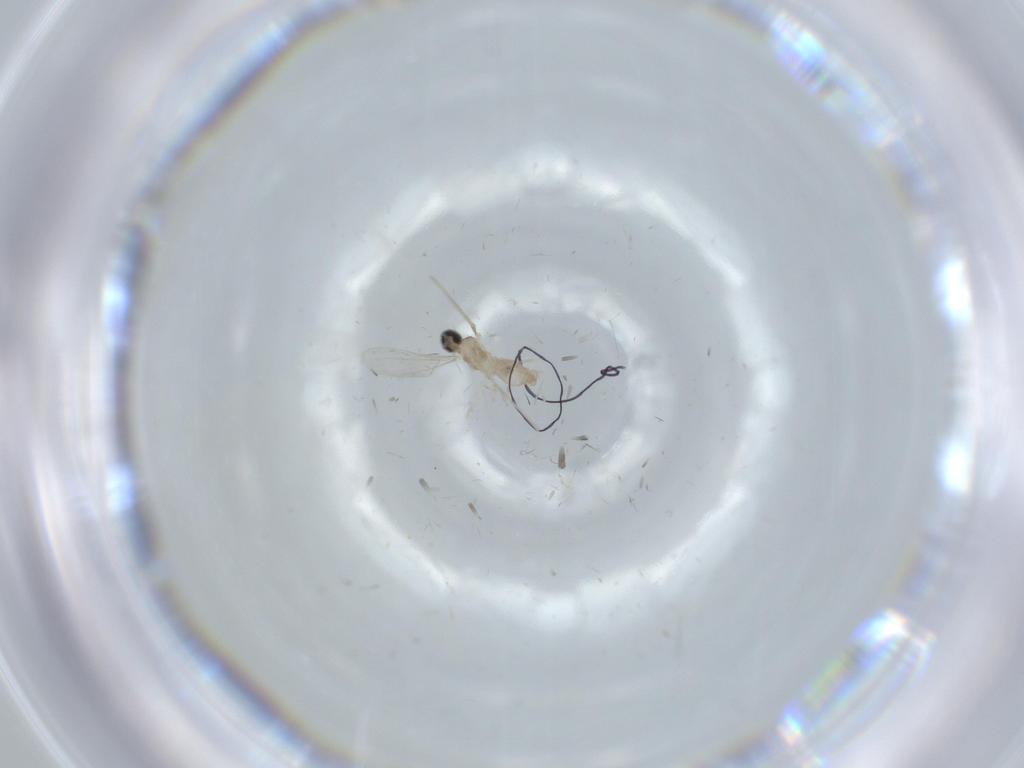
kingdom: Animalia
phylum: Arthropoda
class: Insecta
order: Diptera
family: Cecidomyiidae
